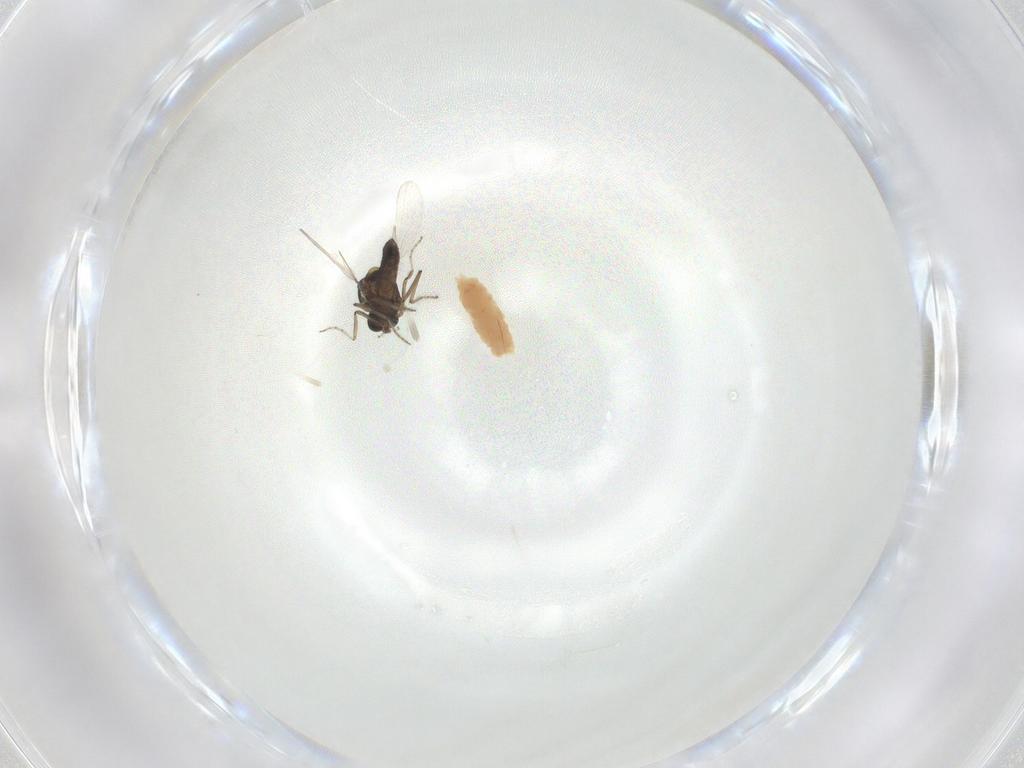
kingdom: Animalia
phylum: Arthropoda
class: Insecta
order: Diptera
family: Ceratopogonidae
